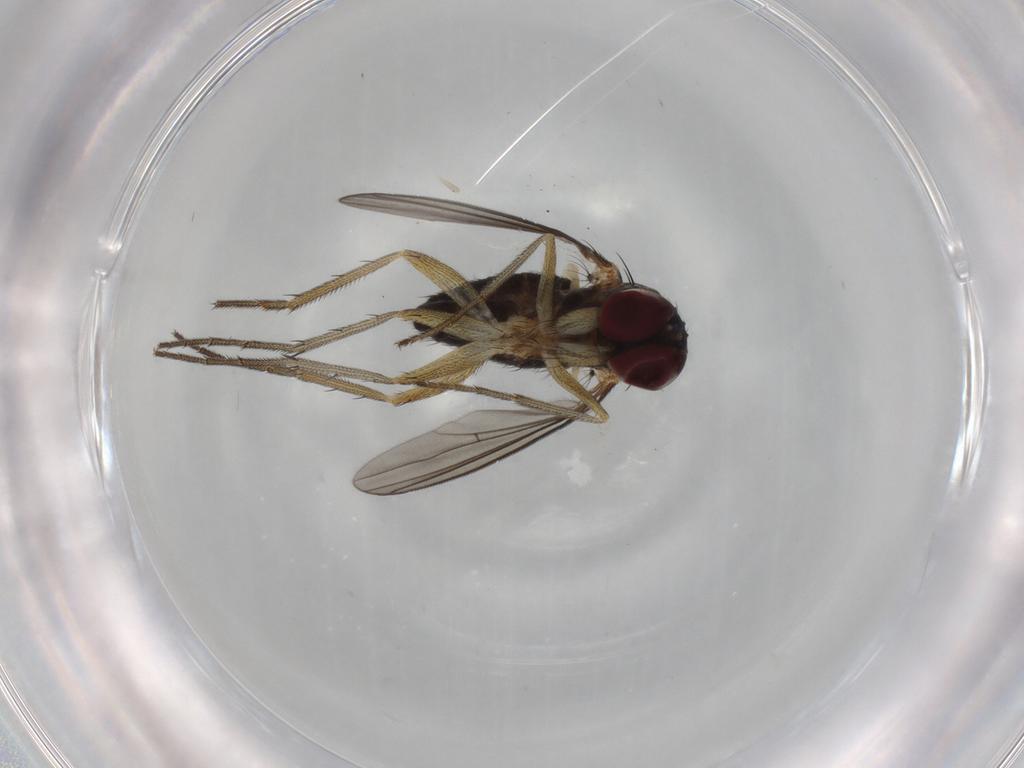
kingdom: Animalia
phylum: Arthropoda
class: Insecta
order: Diptera
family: Dolichopodidae
